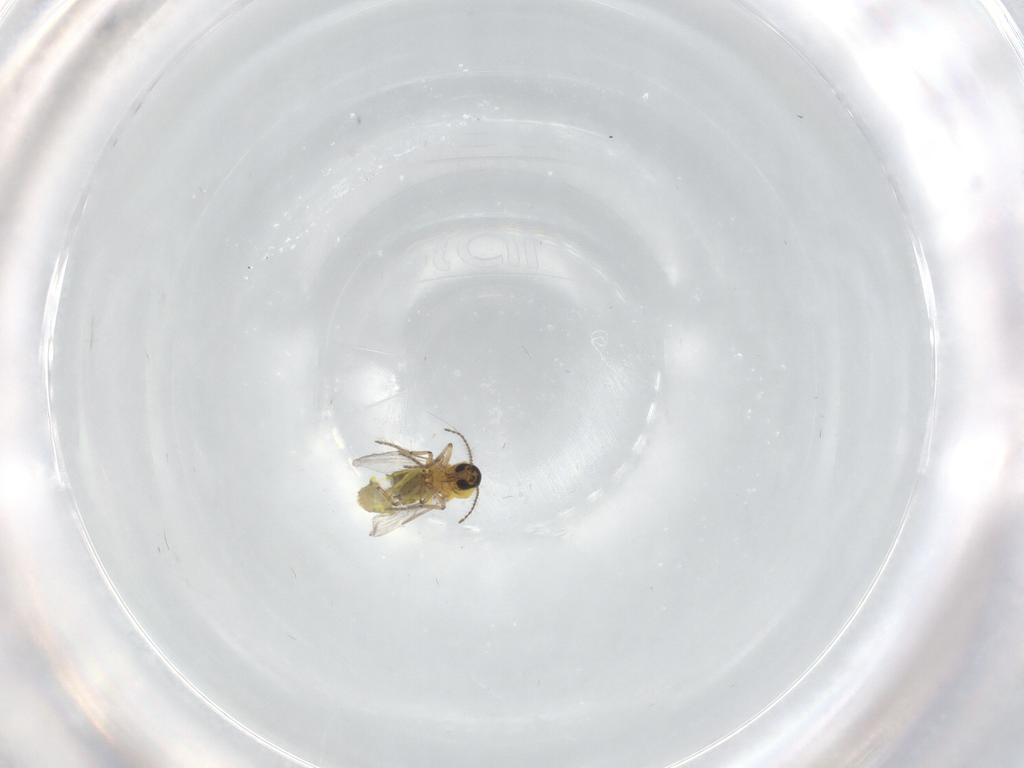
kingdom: Animalia
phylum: Arthropoda
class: Insecta
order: Diptera
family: Ceratopogonidae
